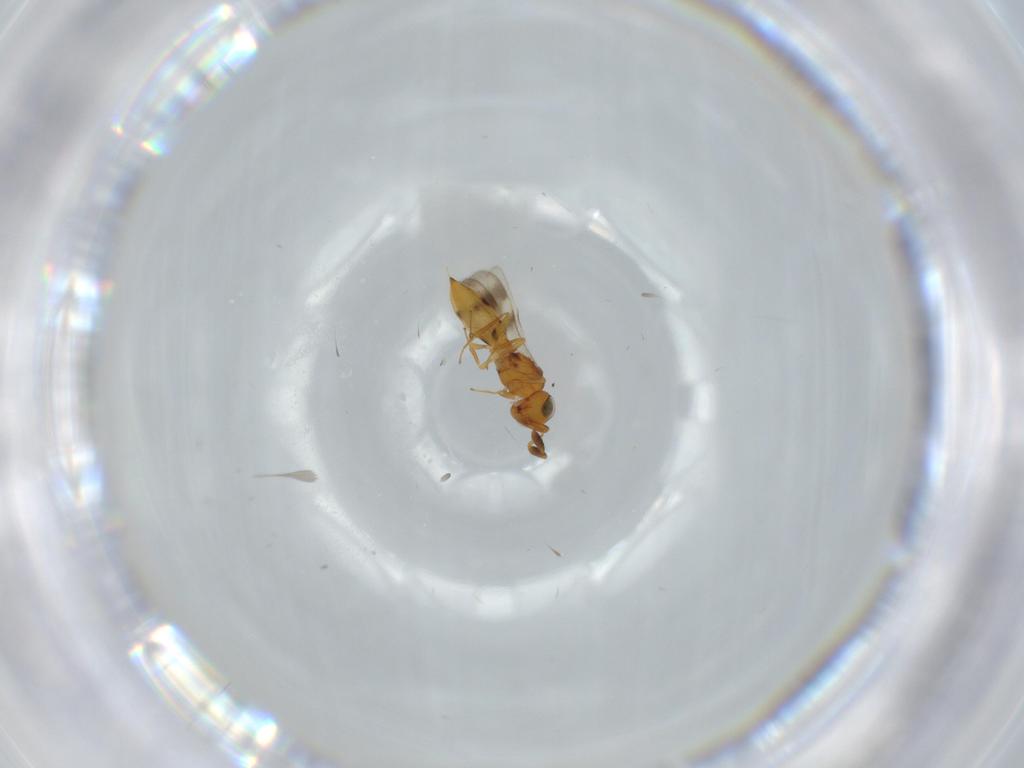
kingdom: Animalia
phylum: Arthropoda
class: Insecta
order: Hymenoptera
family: Scelionidae
